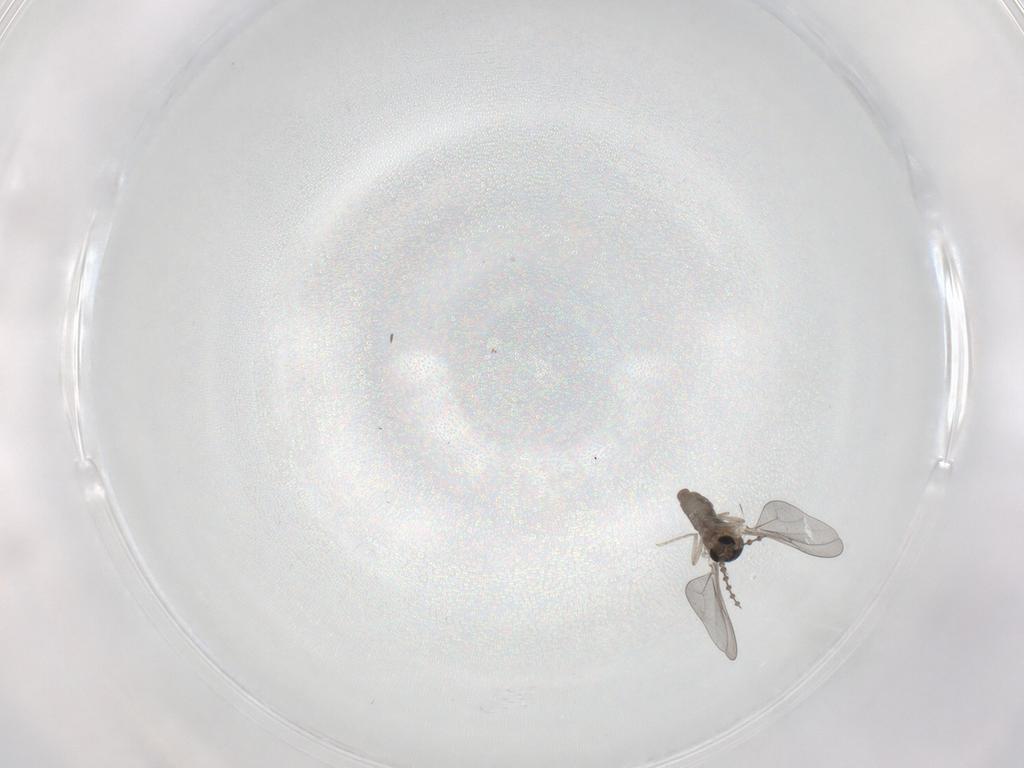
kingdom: Animalia
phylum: Arthropoda
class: Insecta
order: Diptera
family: Cecidomyiidae
